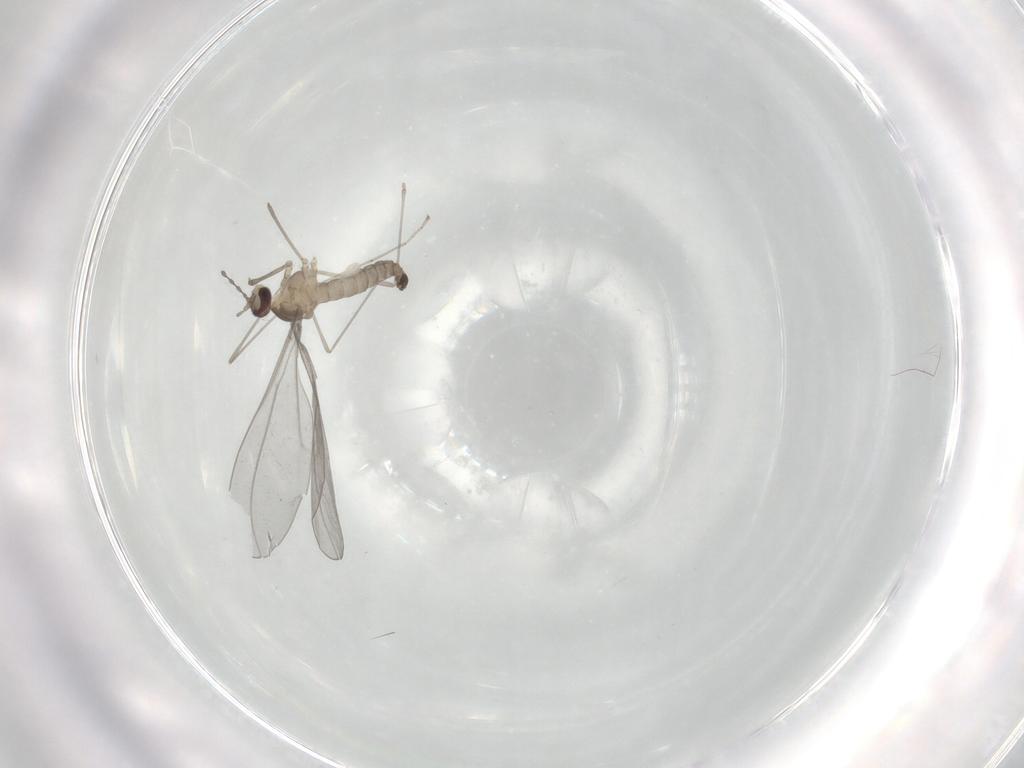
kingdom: Animalia
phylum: Arthropoda
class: Insecta
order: Diptera
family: Cecidomyiidae
